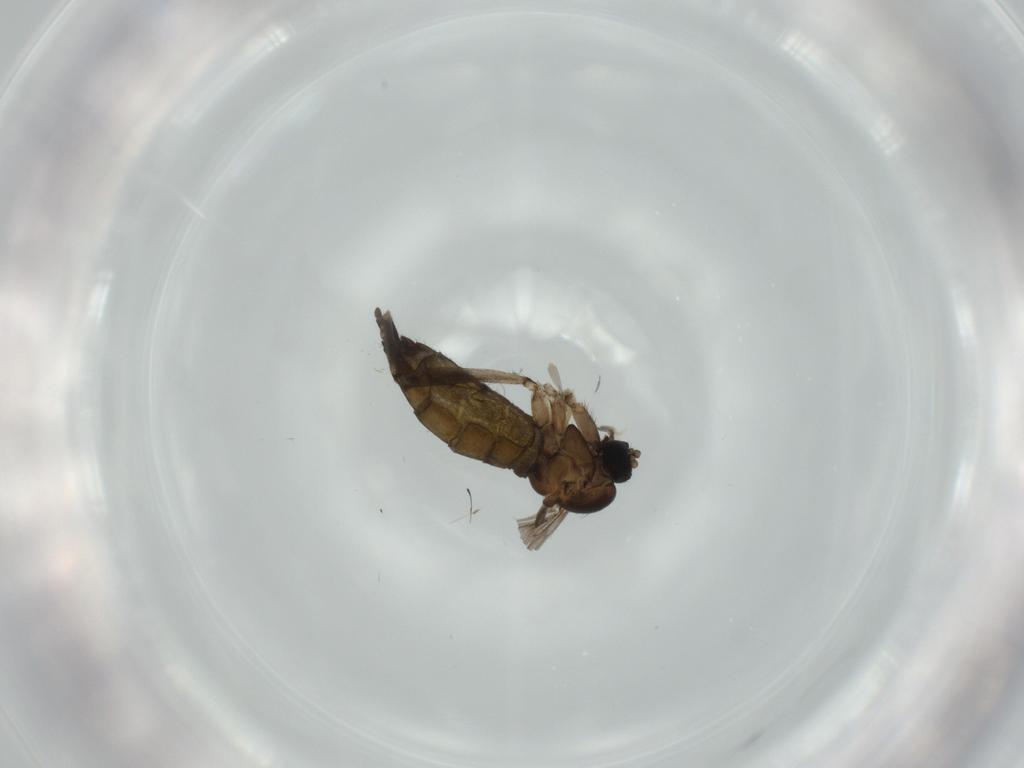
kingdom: Animalia
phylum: Arthropoda
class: Insecta
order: Diptera
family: Sciaridae
